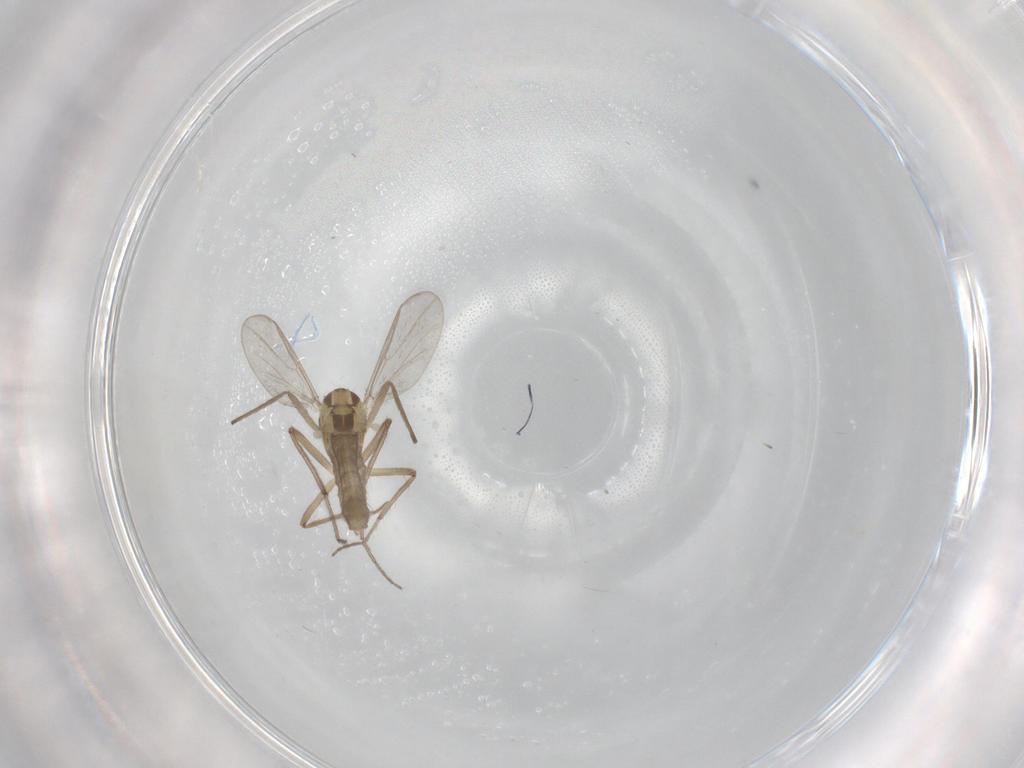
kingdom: Animalia
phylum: Arthropoda
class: Insecta
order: Diptera
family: Chironomidae
